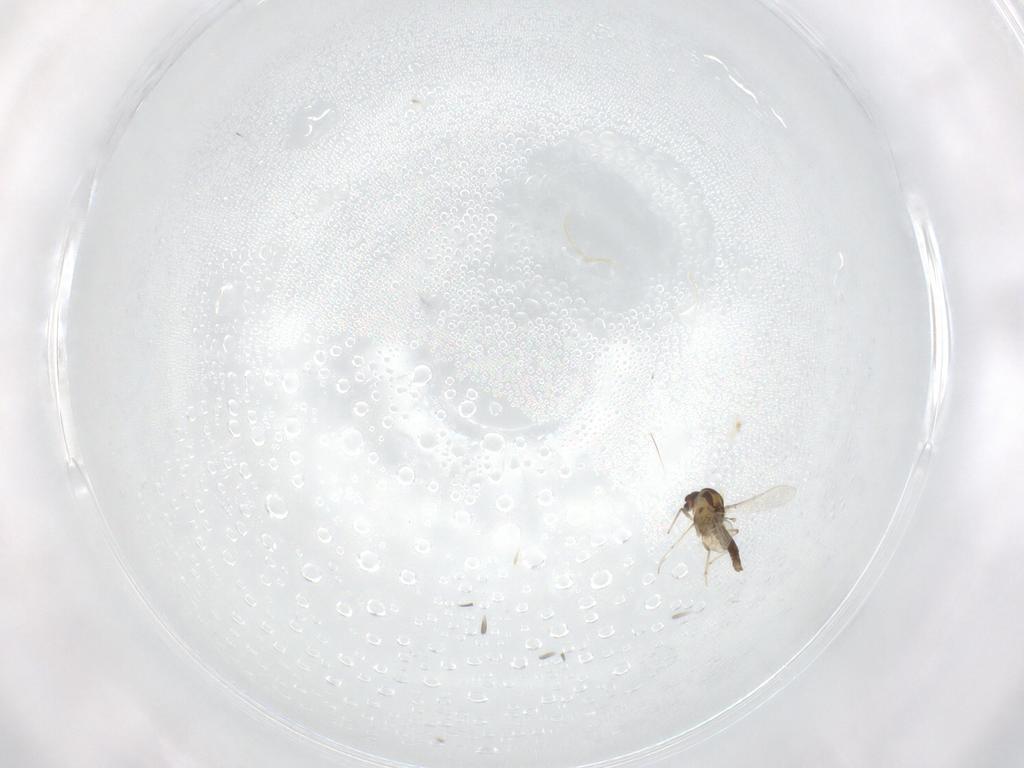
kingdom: Animalia
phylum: Arthropoda
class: Insecta
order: Diptera
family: Chironomidae
